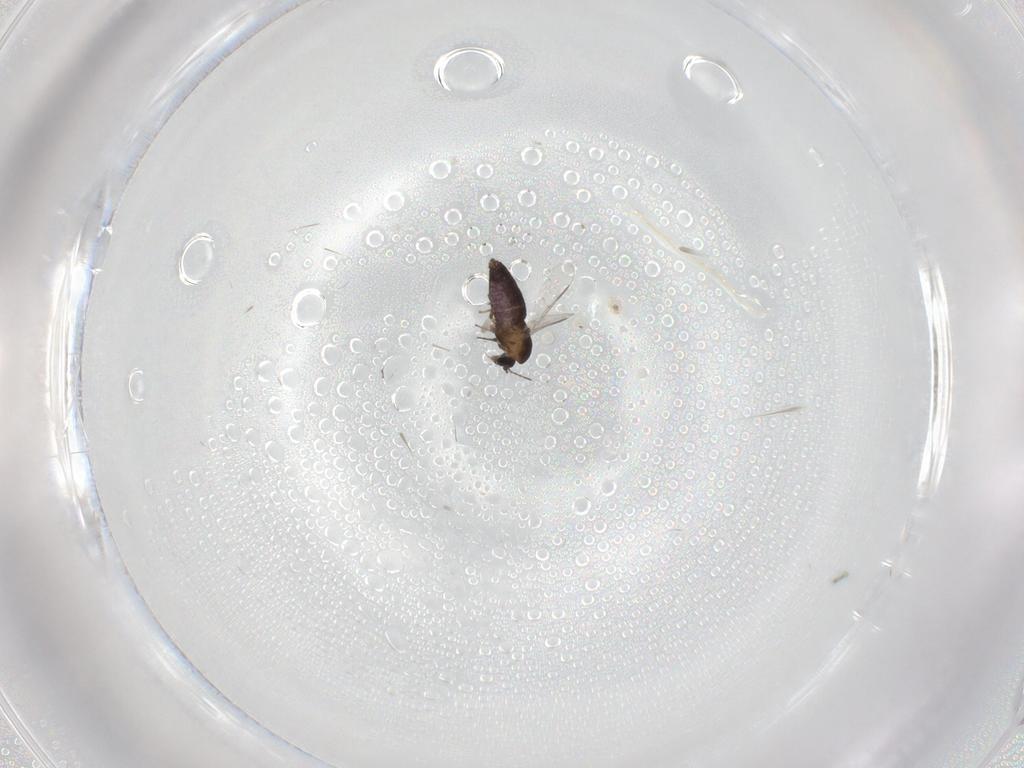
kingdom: Animalia
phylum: Arthropoda
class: Insecta
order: Diptera
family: Chironomidae
